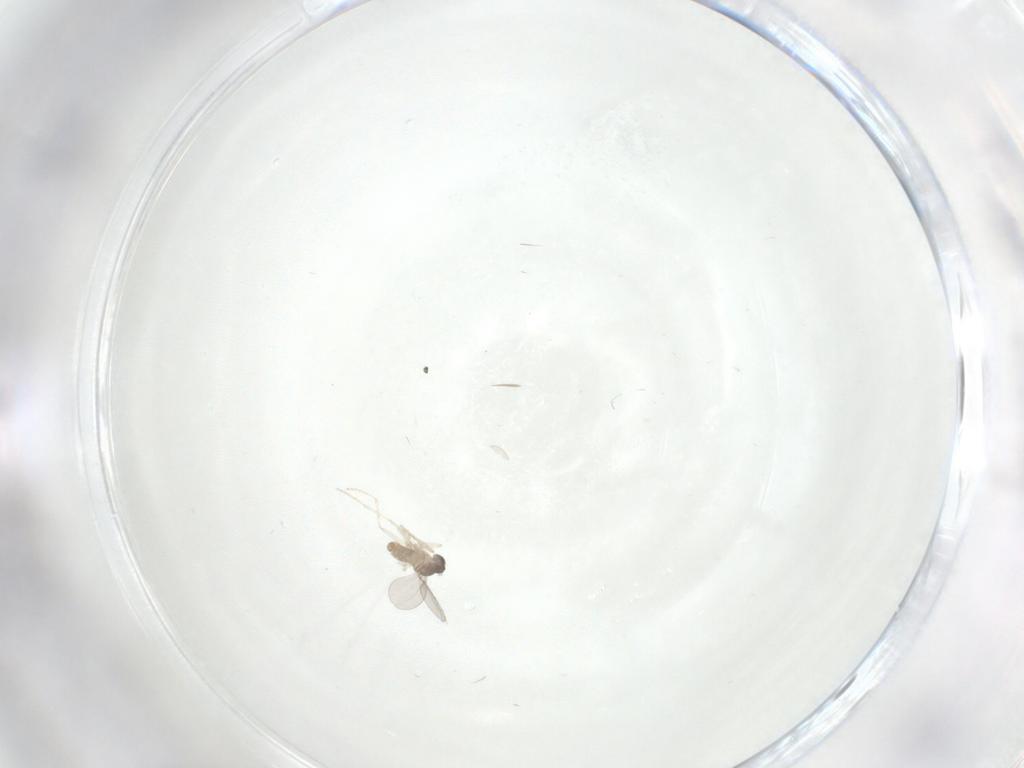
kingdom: Animalia
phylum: Arthropoda
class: Insecta
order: Diptera
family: Cecidomyiidae
